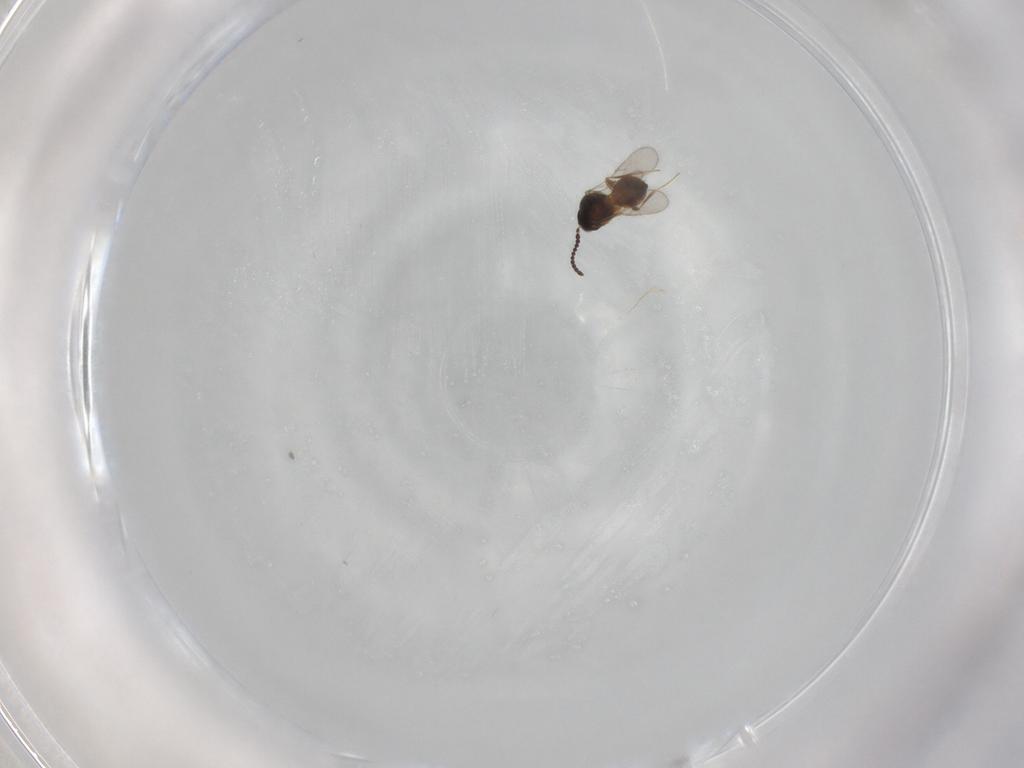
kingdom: Animalia
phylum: Arthropoda
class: Insecta
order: Hymenoptera
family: Scelionidae
